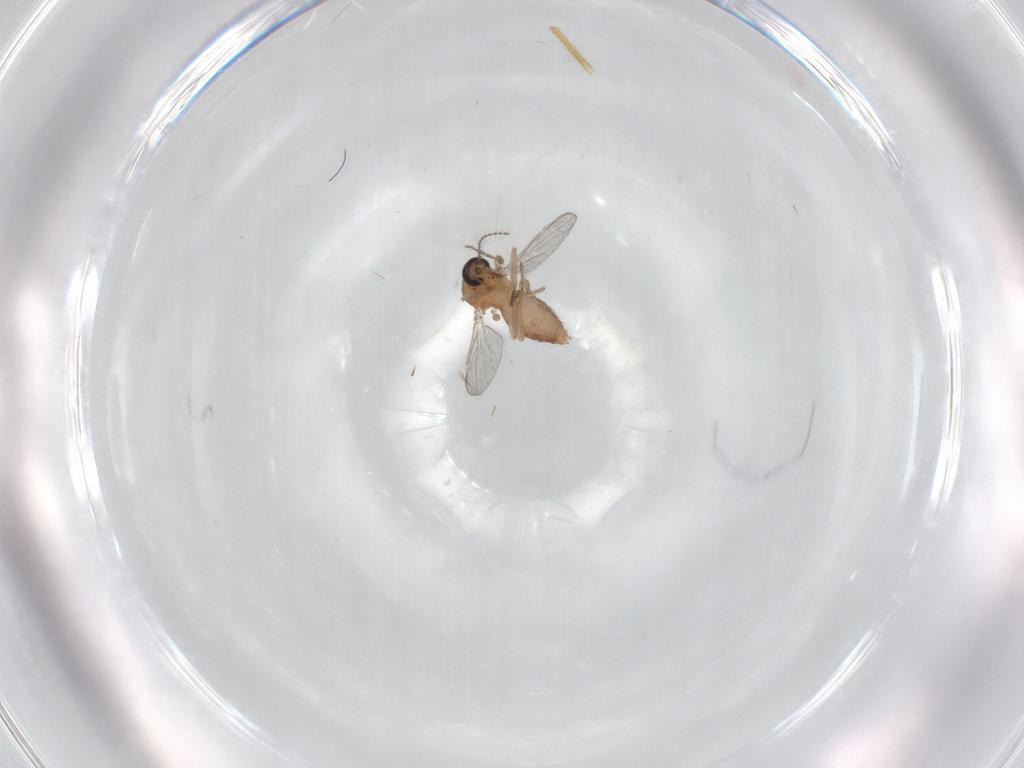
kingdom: Animalia
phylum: Arthropoda
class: Insecta
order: Diptera
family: Ceratopogonidae
